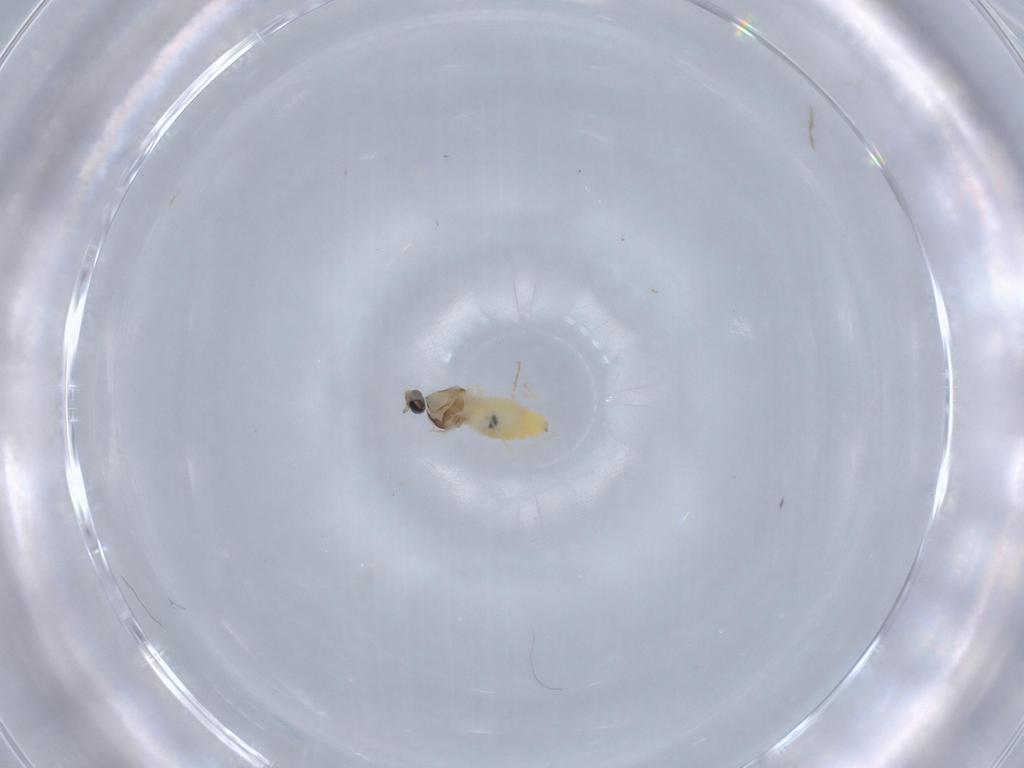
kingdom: Animalia
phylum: Arthropoda
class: Insecta
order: Diptera
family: Cecidomyiidae
